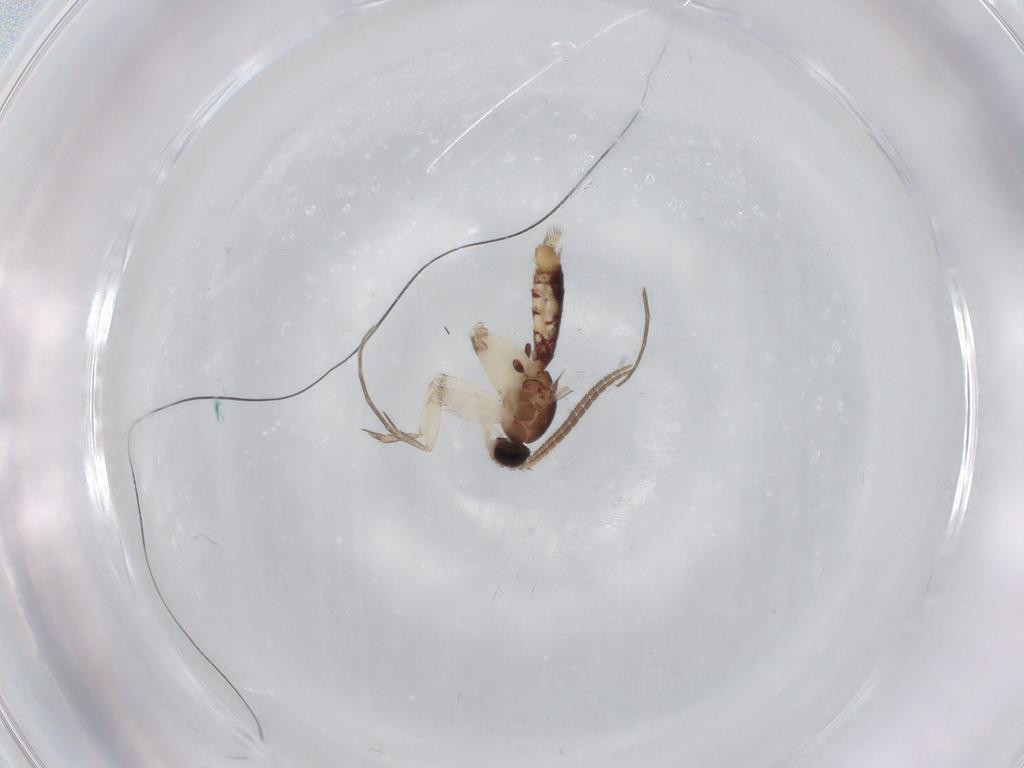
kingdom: Animalia
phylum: Arthropoda
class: Insecta
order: Diptera
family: Mycetophilidae
